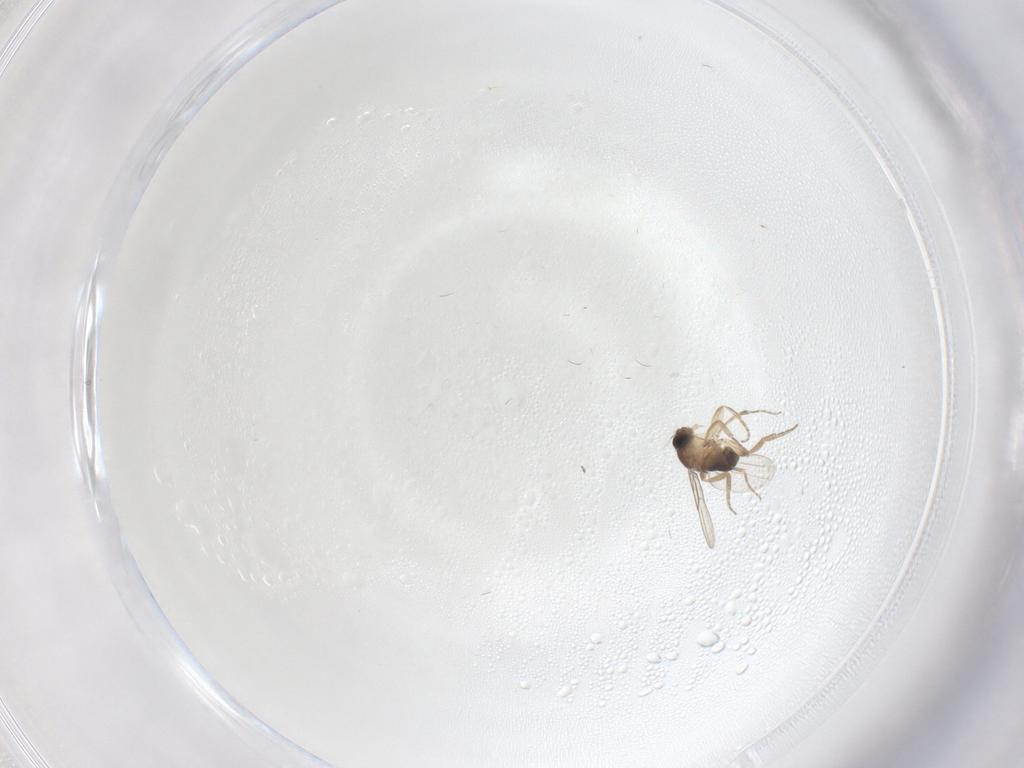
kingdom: Animalia
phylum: Arthropoda
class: Insecta
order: Diptera
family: Phoridae
